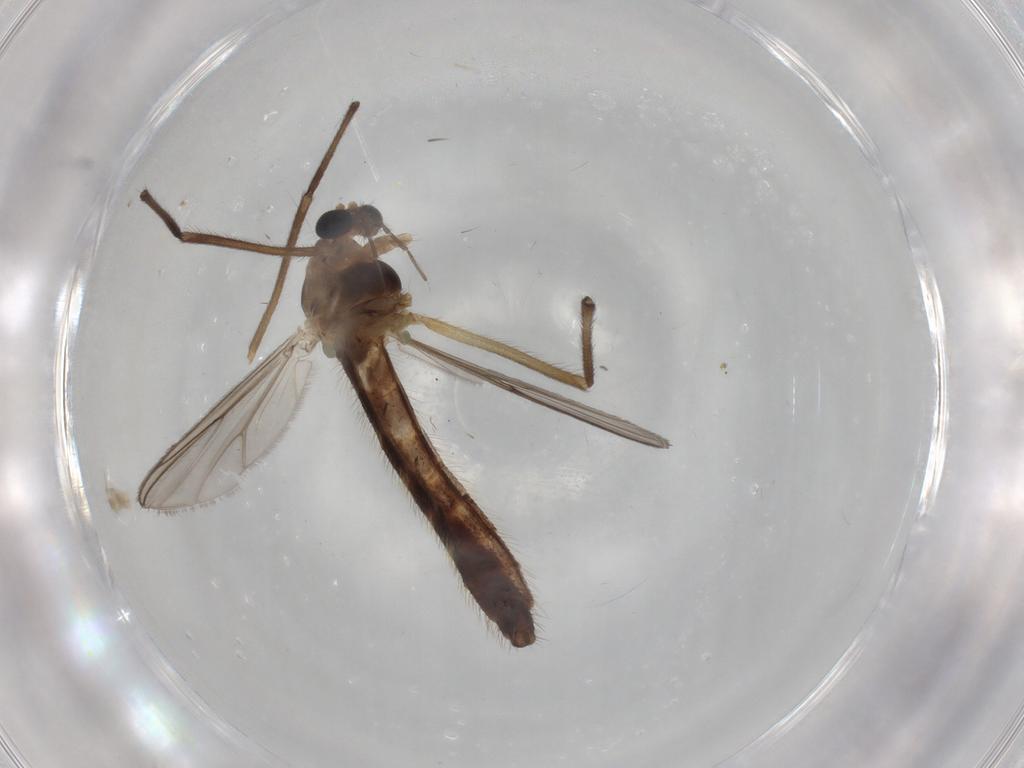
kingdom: Animalia
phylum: Arthropoda
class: Insecta
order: Diptera
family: Chironomidae
